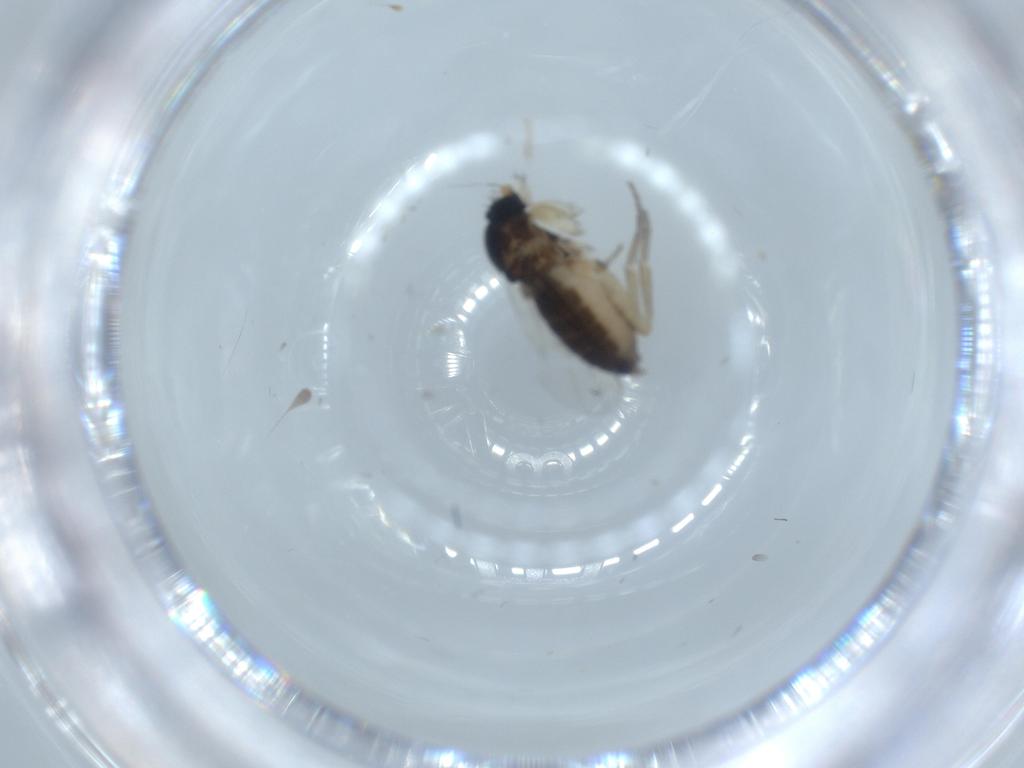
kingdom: Animalia
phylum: Arthropoda
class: Insecta
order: Diptera
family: Phoridae
